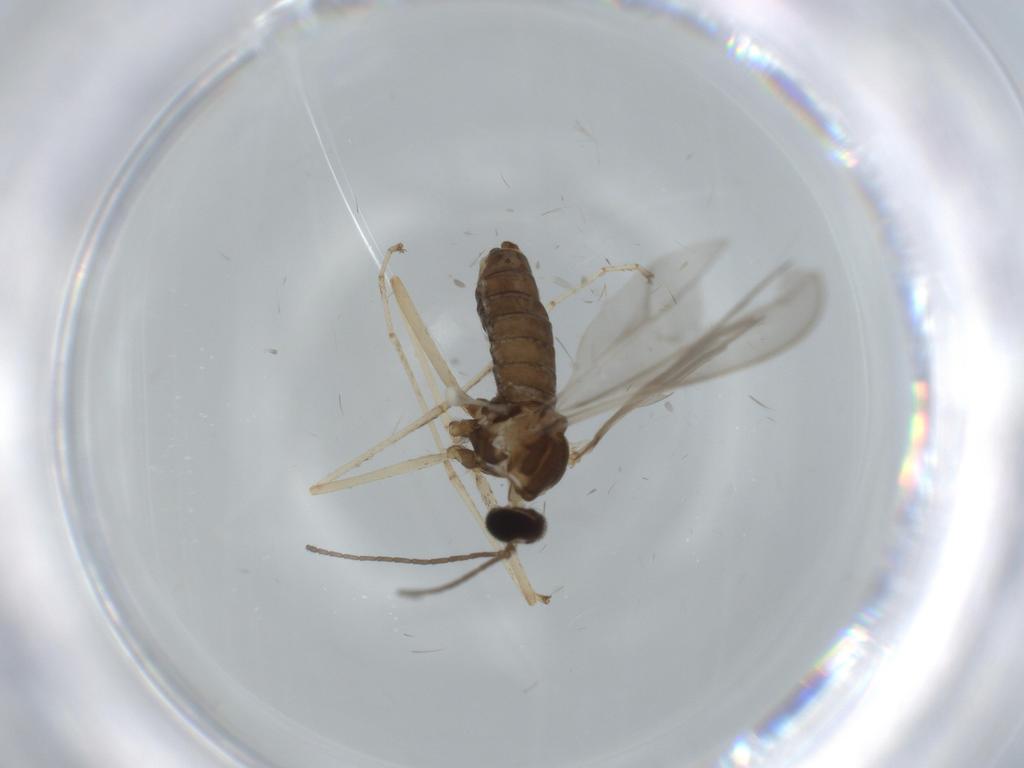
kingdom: Animalia
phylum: Arthropoda
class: Insecta
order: Diptera
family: Cecidomyiidae
